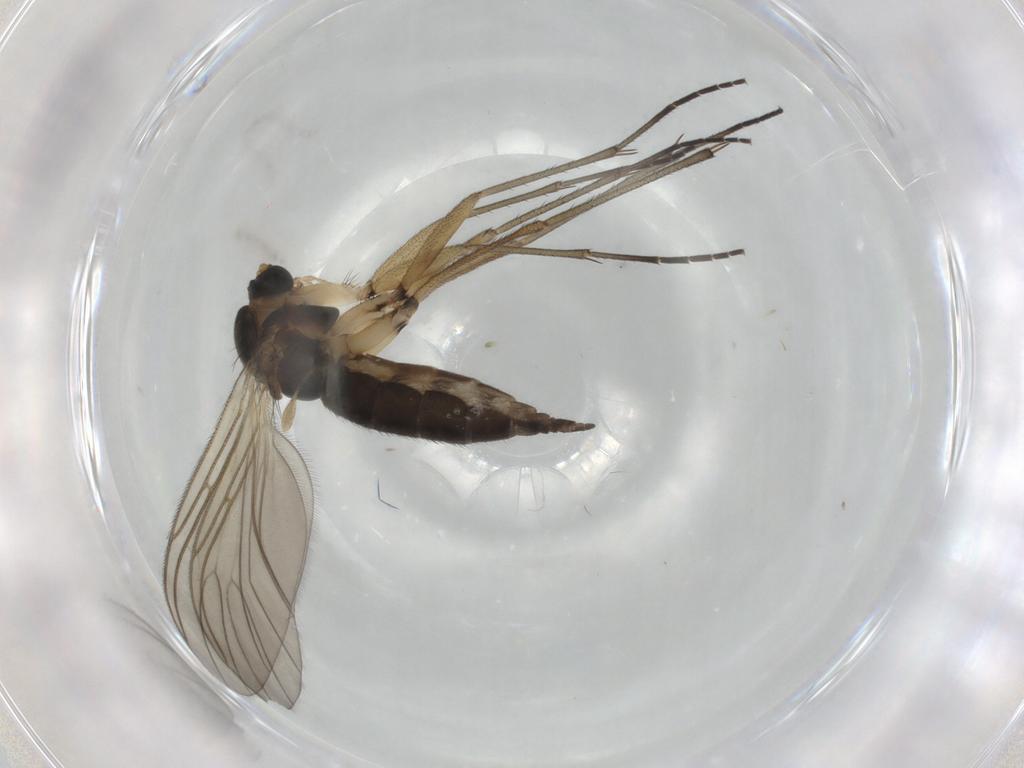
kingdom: Animalia
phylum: Arthropoda
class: Insecta
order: Diptera
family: Sciaridae
